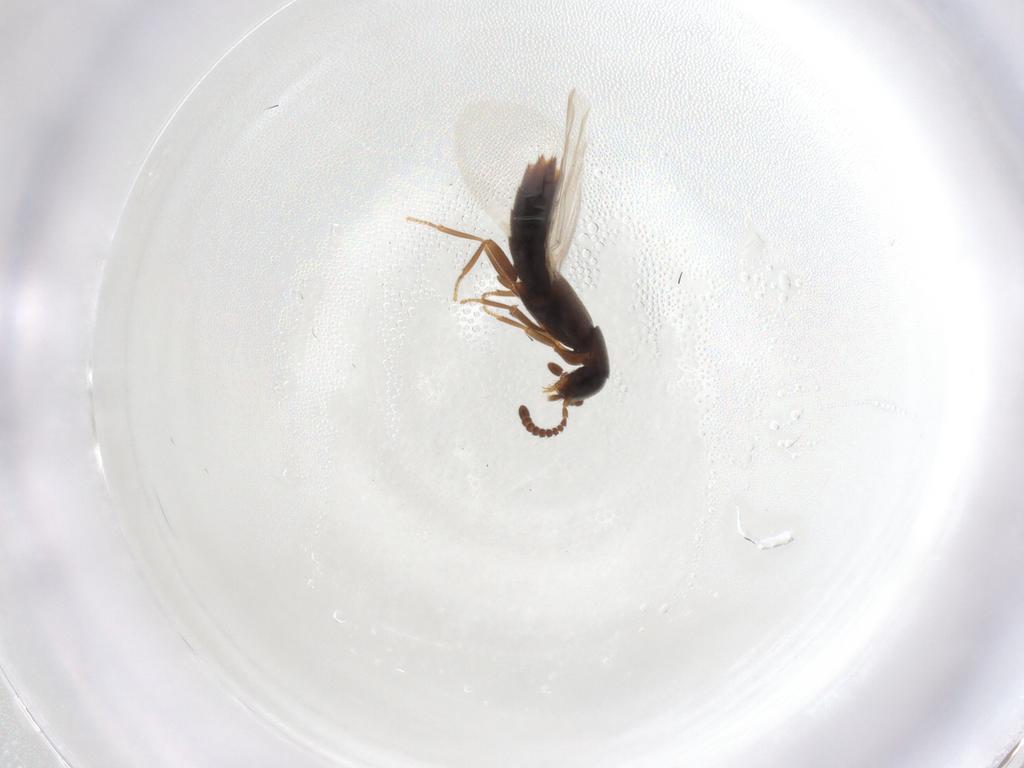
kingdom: Animalia
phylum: Arthropoda
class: Insecta
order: Coleoptera
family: Staphylinidae
